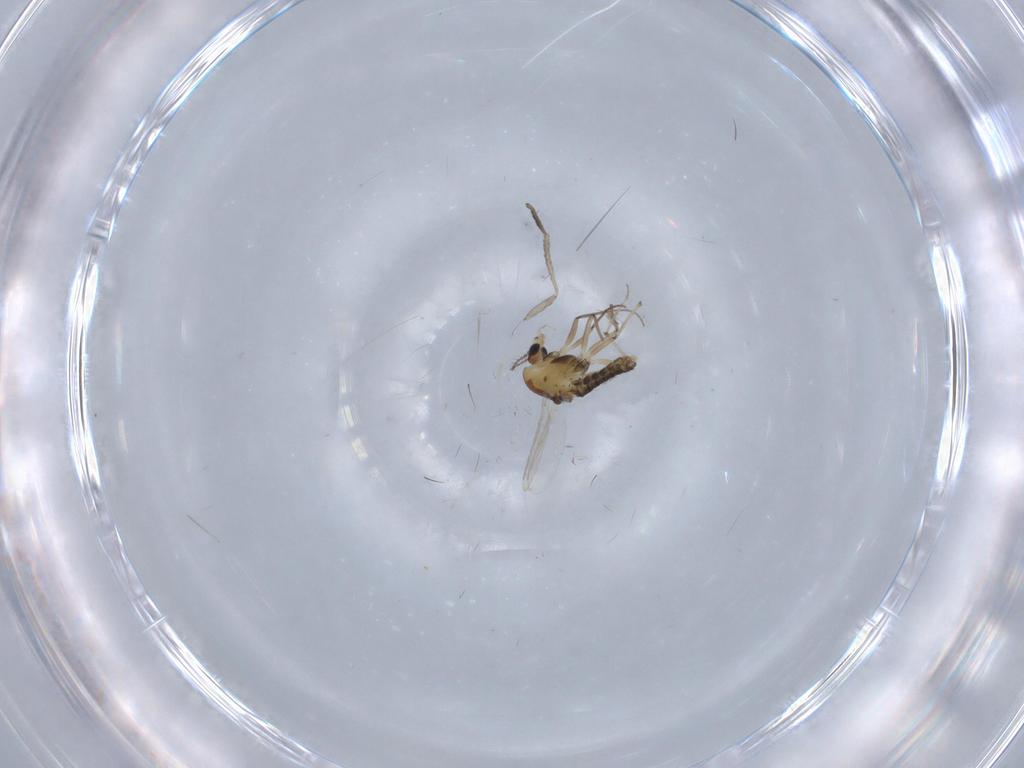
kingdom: Animalia
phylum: Arthropoda
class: Insecta
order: Diptera
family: Chironomidae
